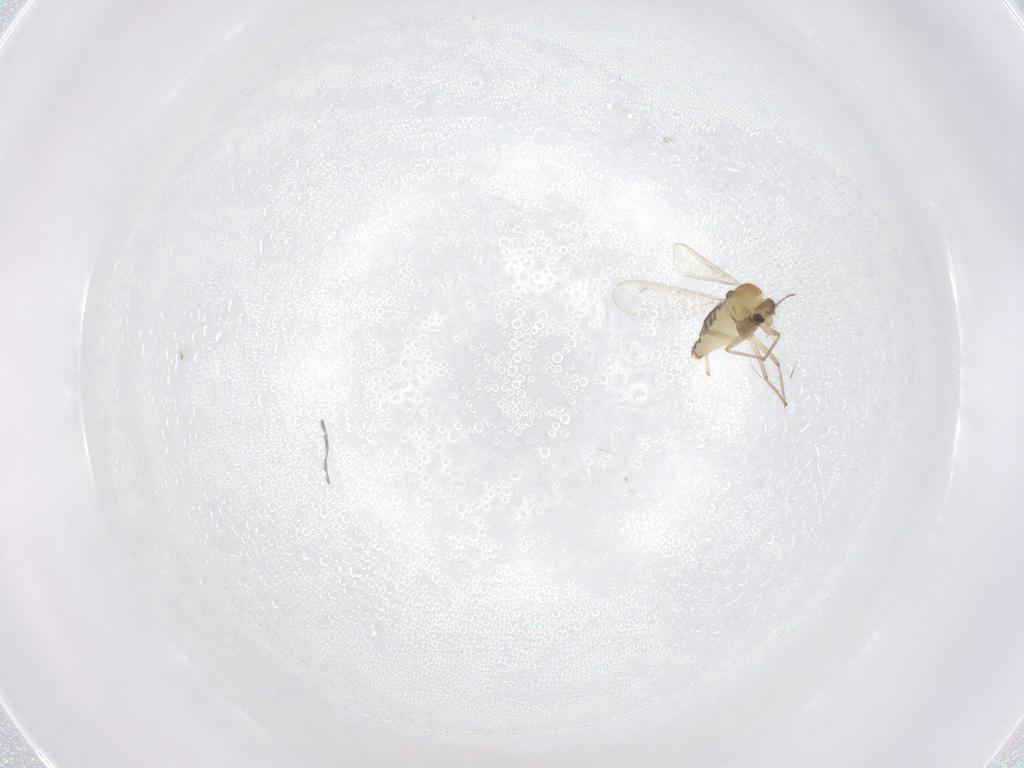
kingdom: Animalia
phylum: Arthropoda
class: Insecta
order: Diptera
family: Chironomidae
